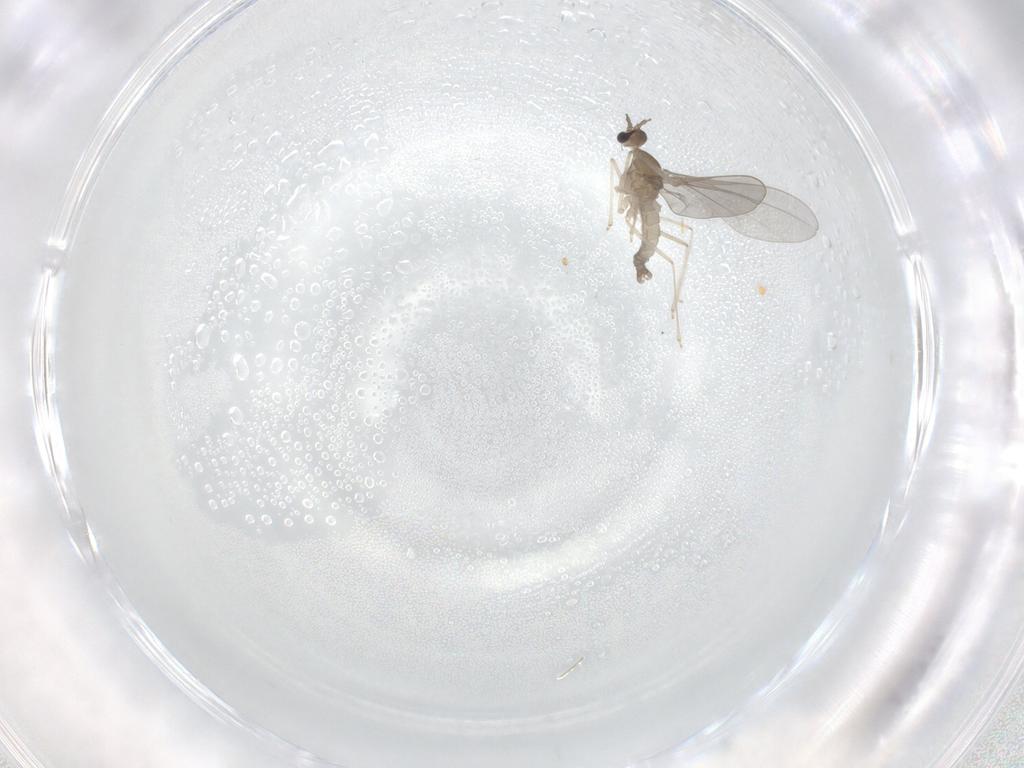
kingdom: Animalia
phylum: Arthropoda
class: Insecta
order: Diptera
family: Cecidomyiidae
